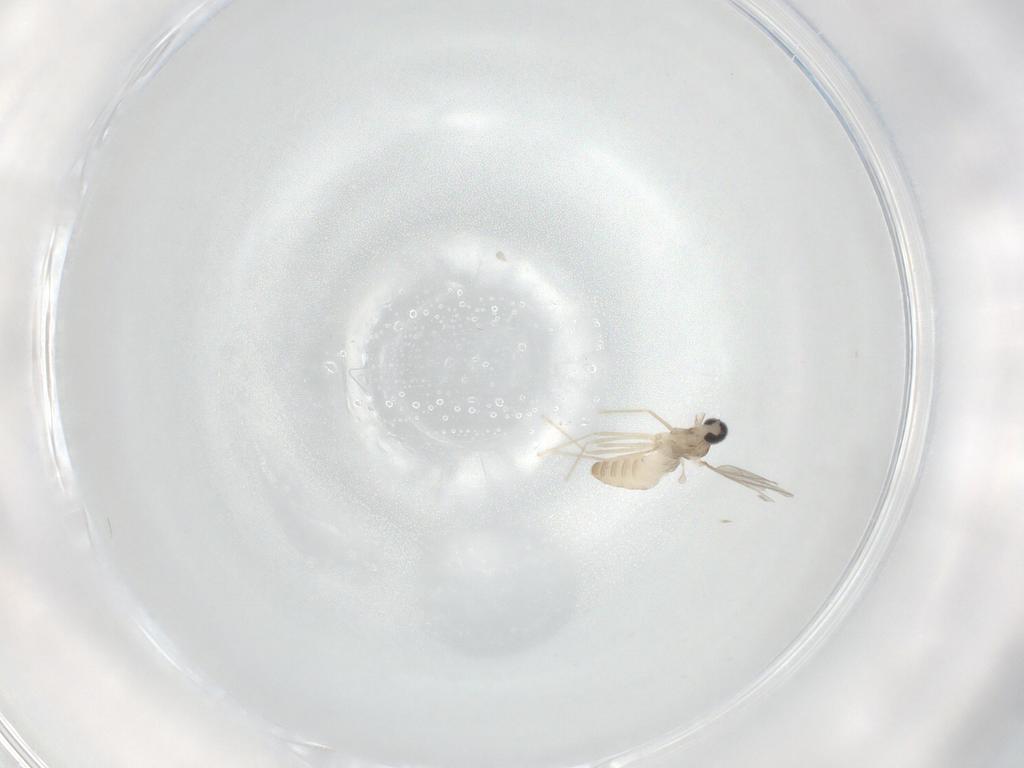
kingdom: Animalia
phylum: Arthropoda
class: Insecta
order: Diptera
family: Cecidomyiidae
